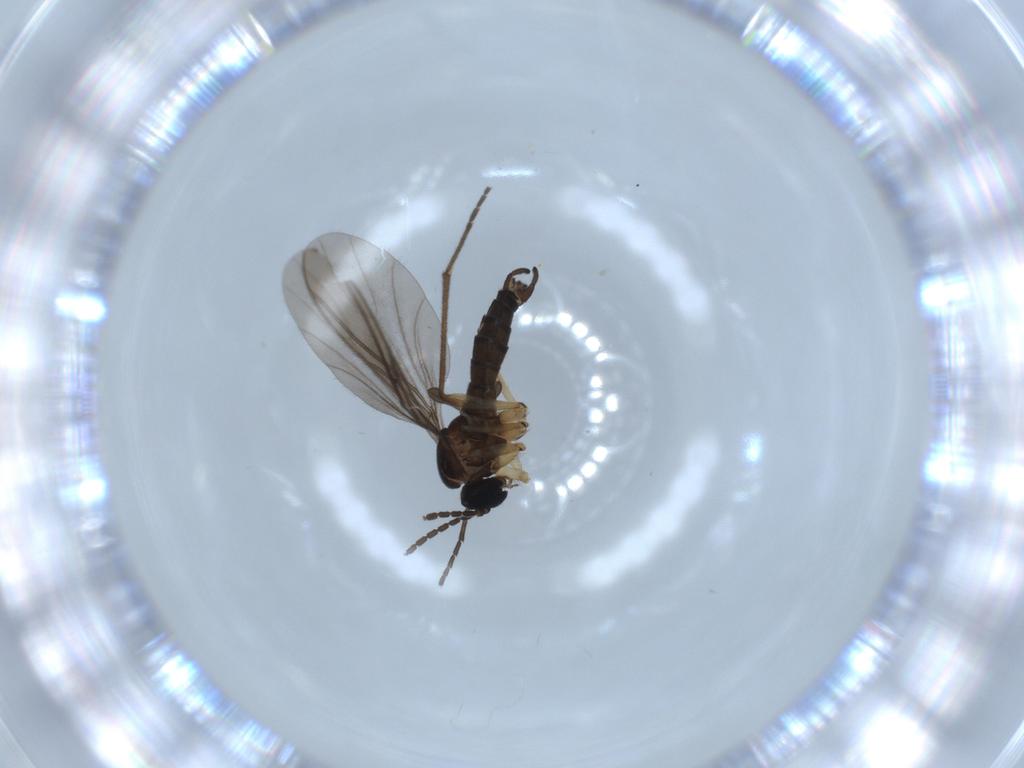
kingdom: Animalia
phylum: Arthropoda
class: Insecta
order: Diptera
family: Sciaridae
